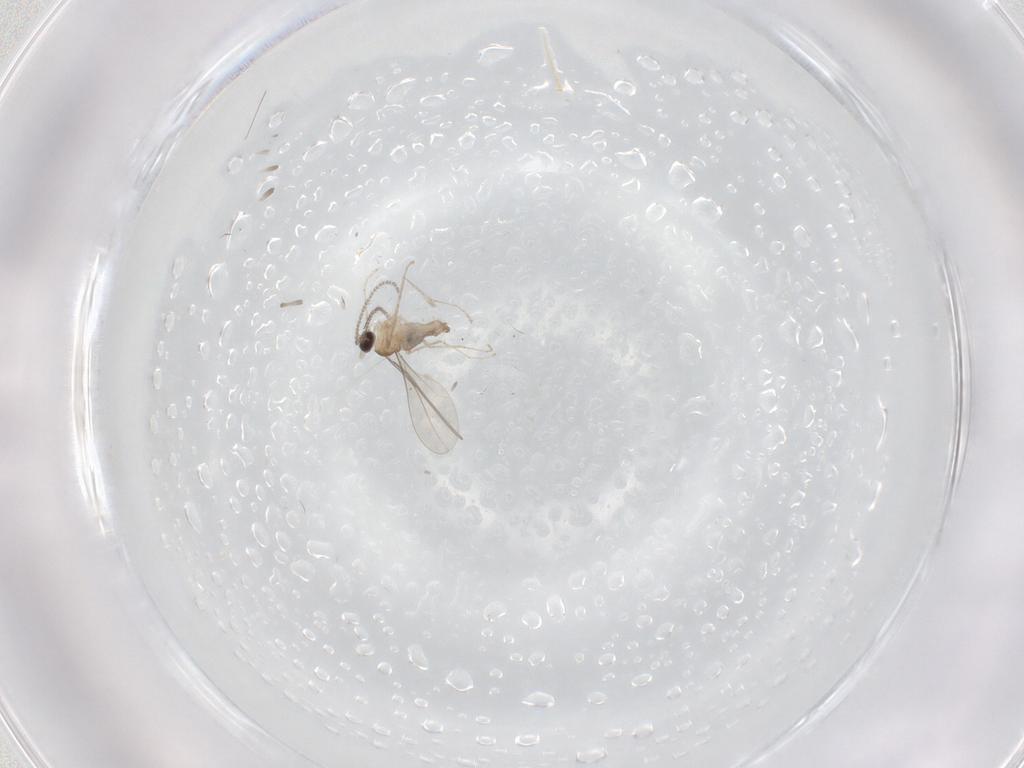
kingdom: Animalia
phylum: Arthropoda
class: Insecta
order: Diptera
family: Cecidomyiidae
